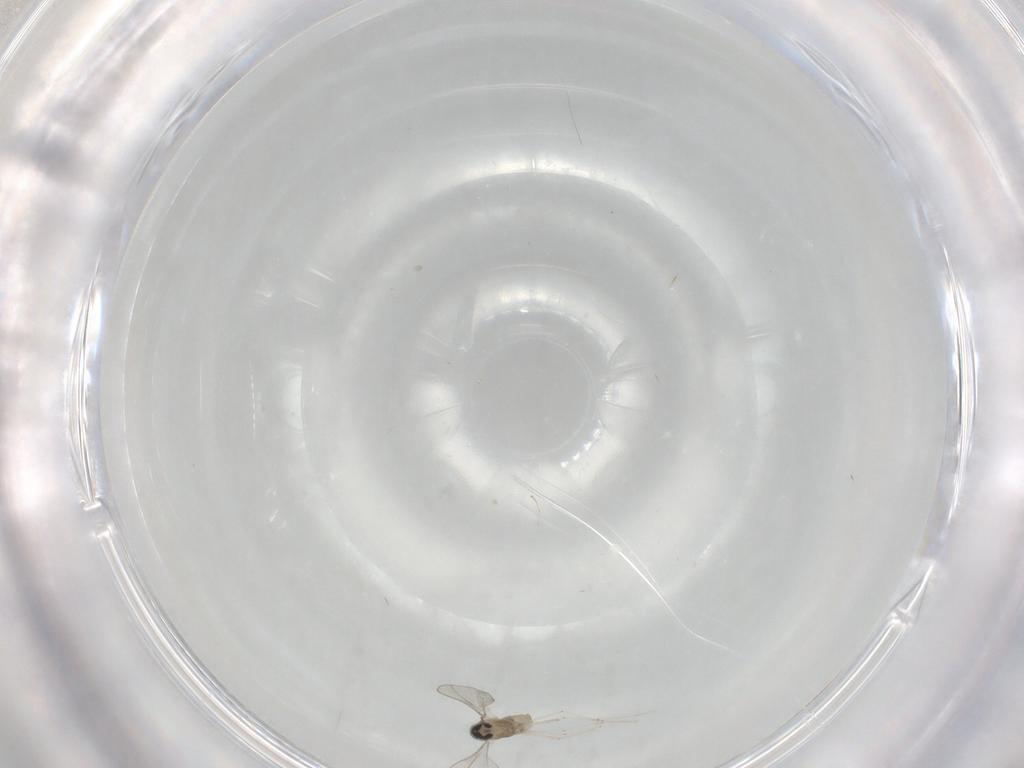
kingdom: Animalia
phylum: Arthropoda
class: Insecta
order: Diptera
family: Cecidomyiidae
